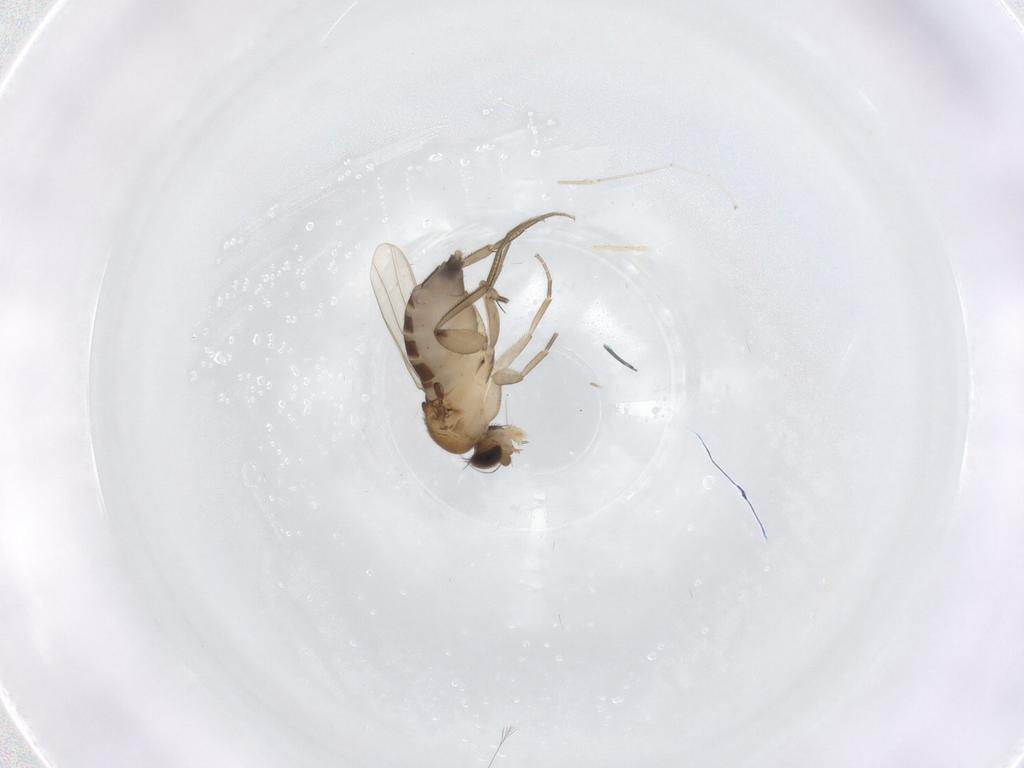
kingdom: Animalia
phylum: Arthropoda
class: Insecta
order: Diptera
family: Phoridae
